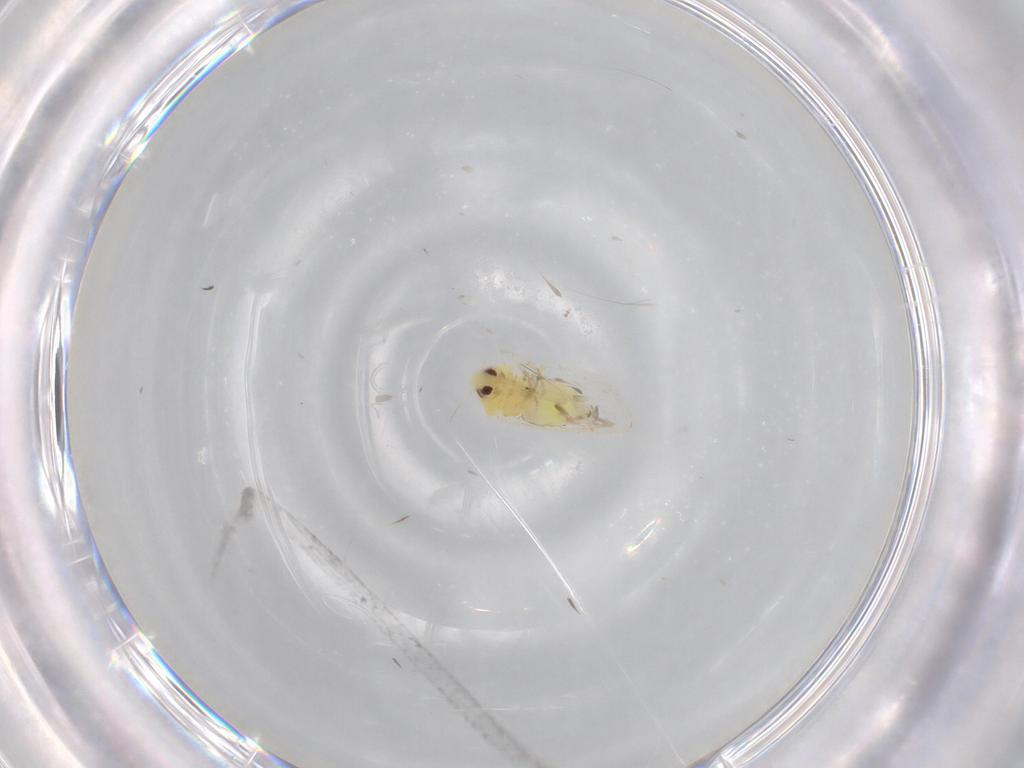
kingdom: Animalia
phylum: Arthropoda
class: Insecta
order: Hemiptera
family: Aleyrodidae
